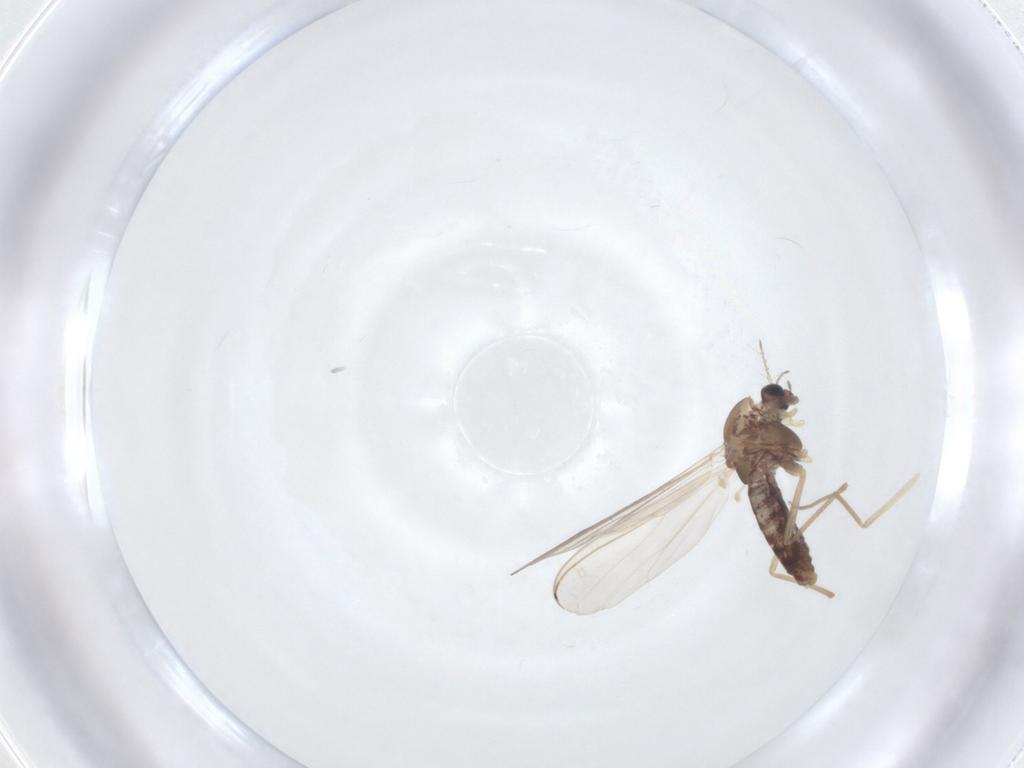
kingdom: Animalia
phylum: Arthropoda
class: Insecta
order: Diptera
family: Chironomidae
